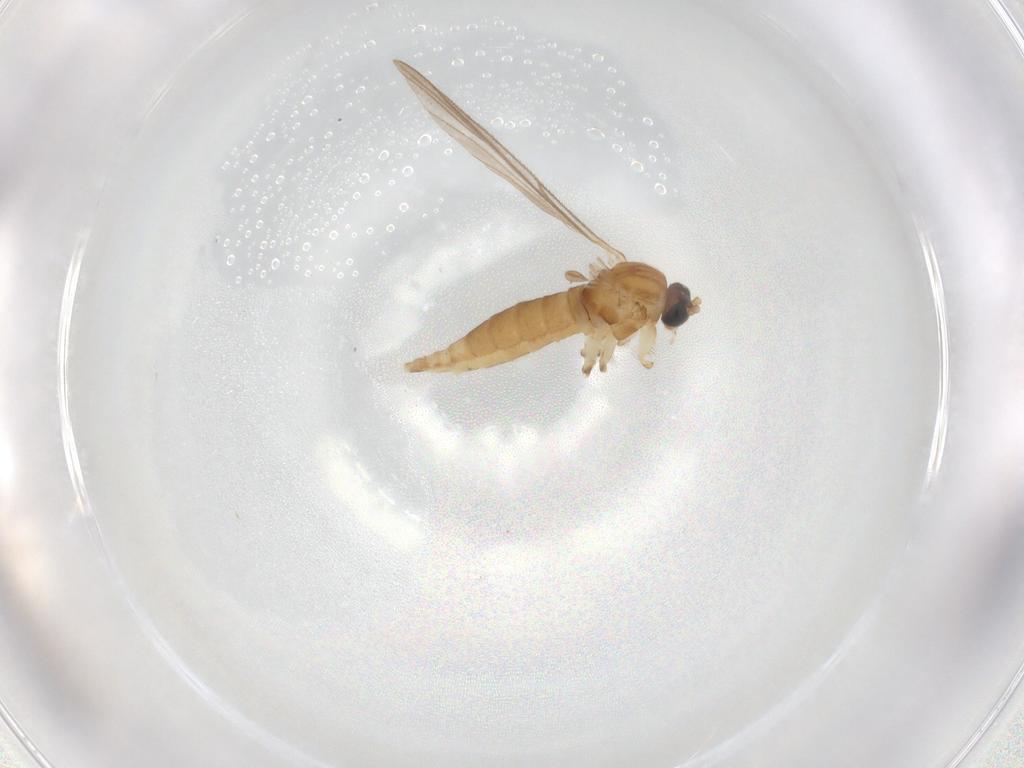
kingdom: Animalia
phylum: Arthropoda
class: Insecta
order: Diptera
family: Sciaridae
